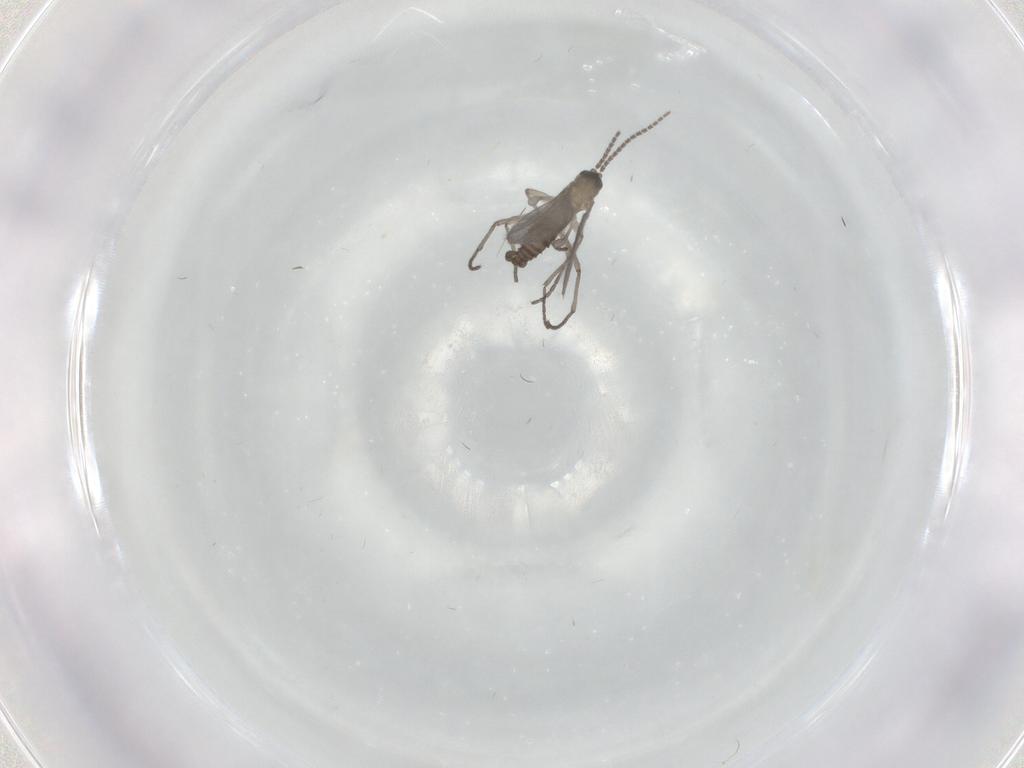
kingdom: Animalia
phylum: Arthropoda
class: Insecta
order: Diptera
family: Sciaridae
